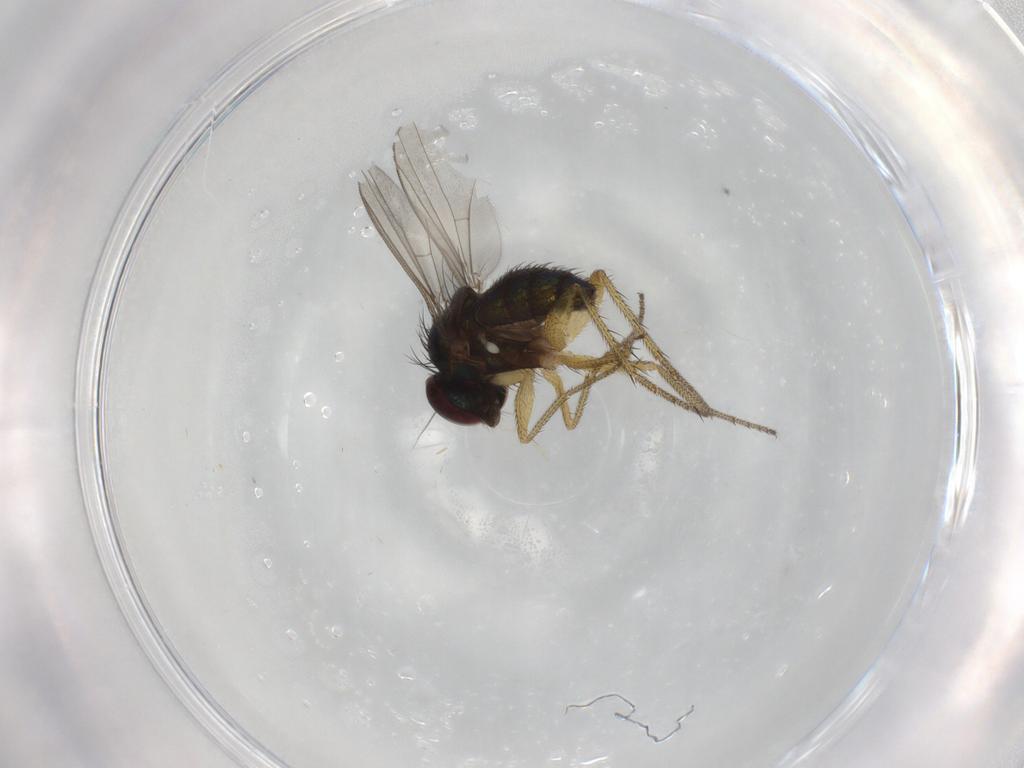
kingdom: Animalia
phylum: Arthropoda
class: Insecta
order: Diptera
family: Dolichopodidae
